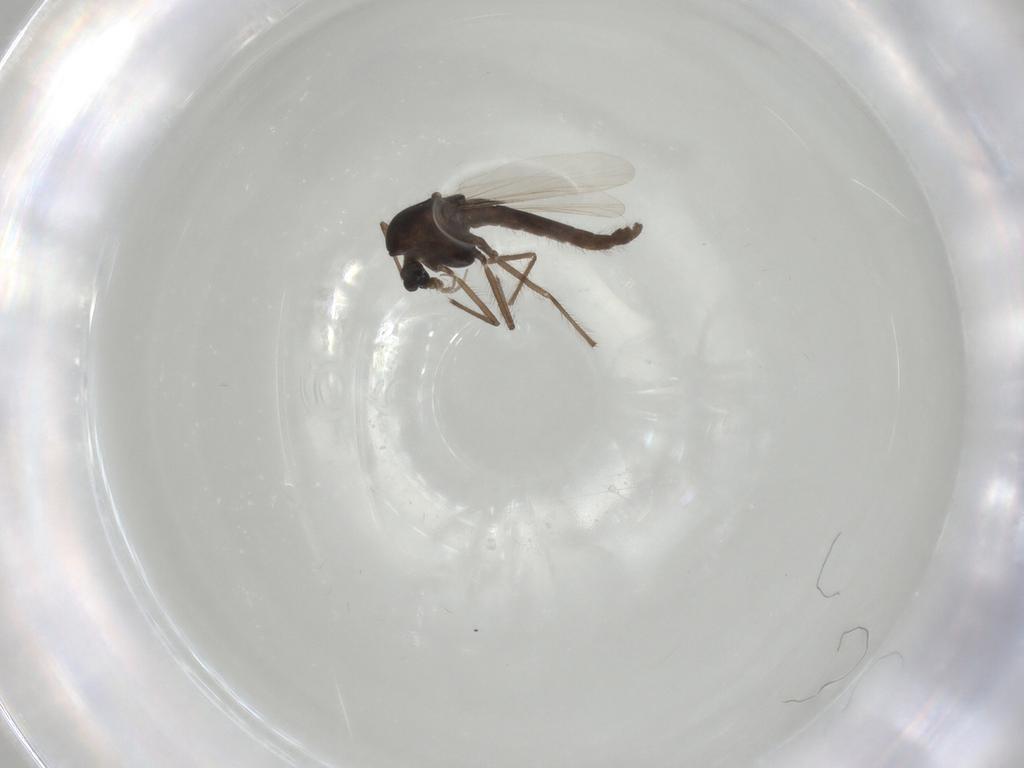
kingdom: Animalia
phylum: Arthropoda
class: Insecta
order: Diptera
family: Chironomidae
